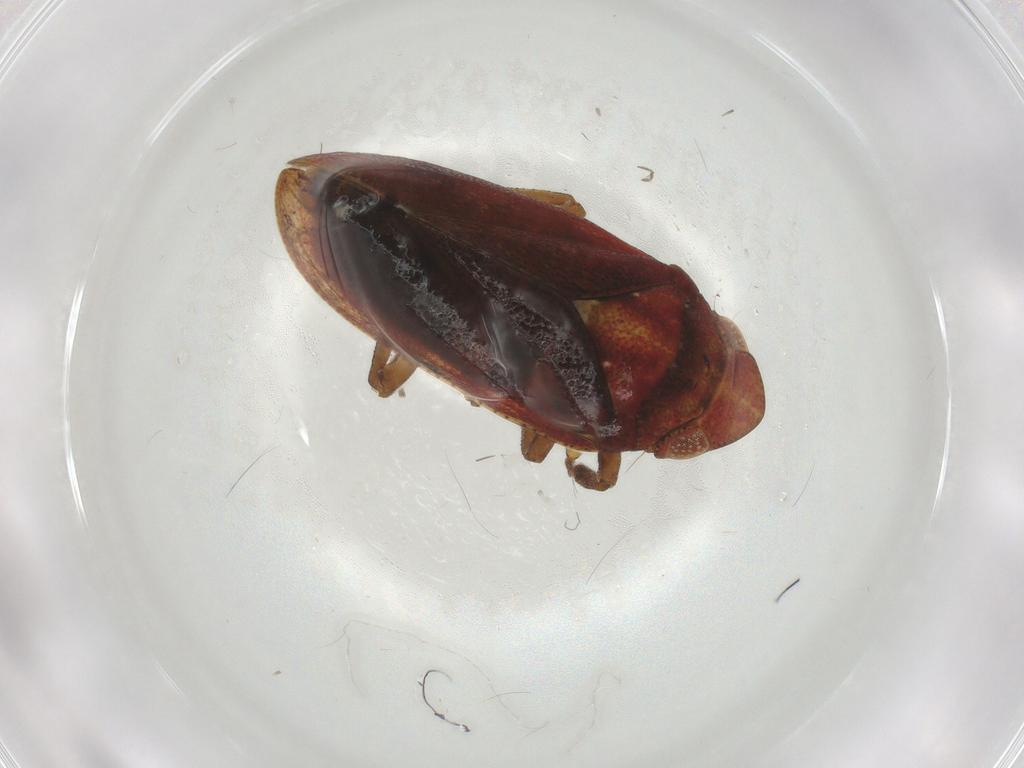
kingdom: Animalia
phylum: Arthropoda
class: Insecta
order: Hemiptera
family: Tettigometridae
